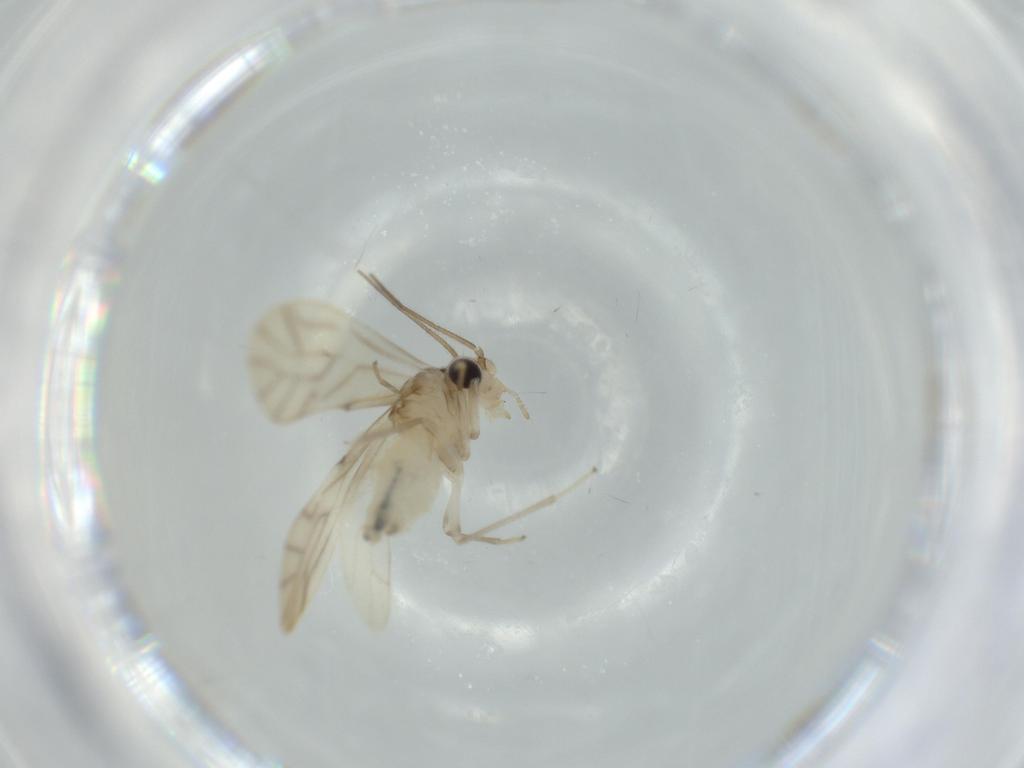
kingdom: Animalia
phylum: Arthropoda
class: Insecta
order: Psocodea
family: Caeciliusidae
